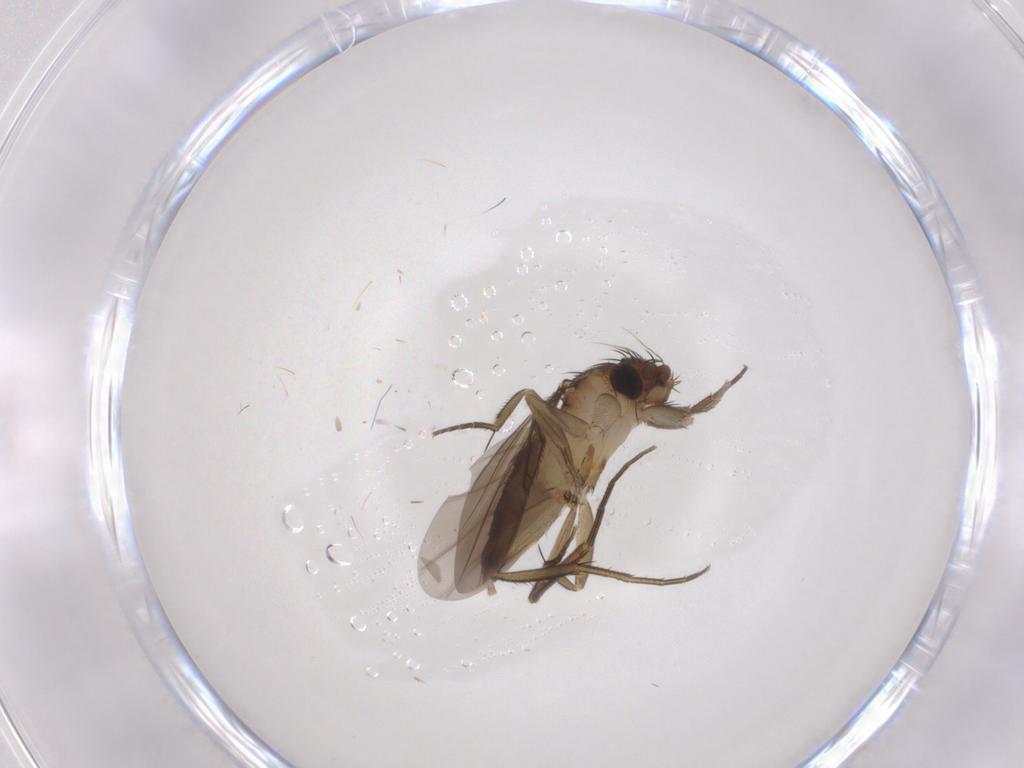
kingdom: Animalia
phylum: Arthropoda
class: Insecta
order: Diptera
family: Phoridae
